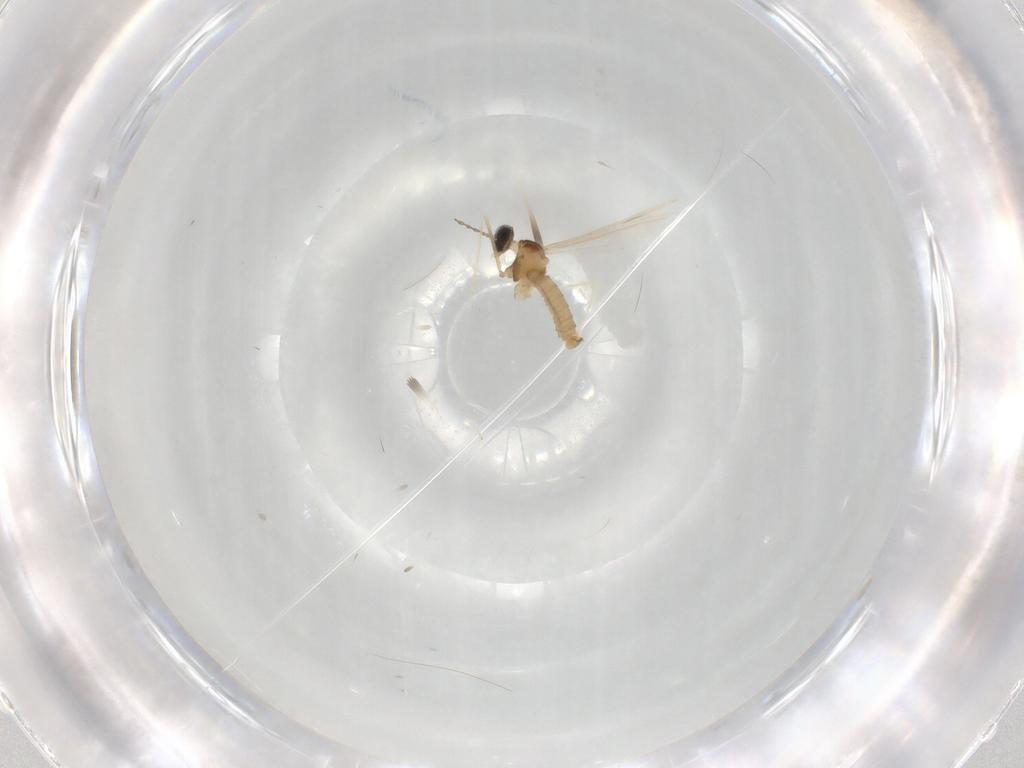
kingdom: Animalia
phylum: Arthropoda
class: Insecta
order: Diptera
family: Cecidomyiidae
